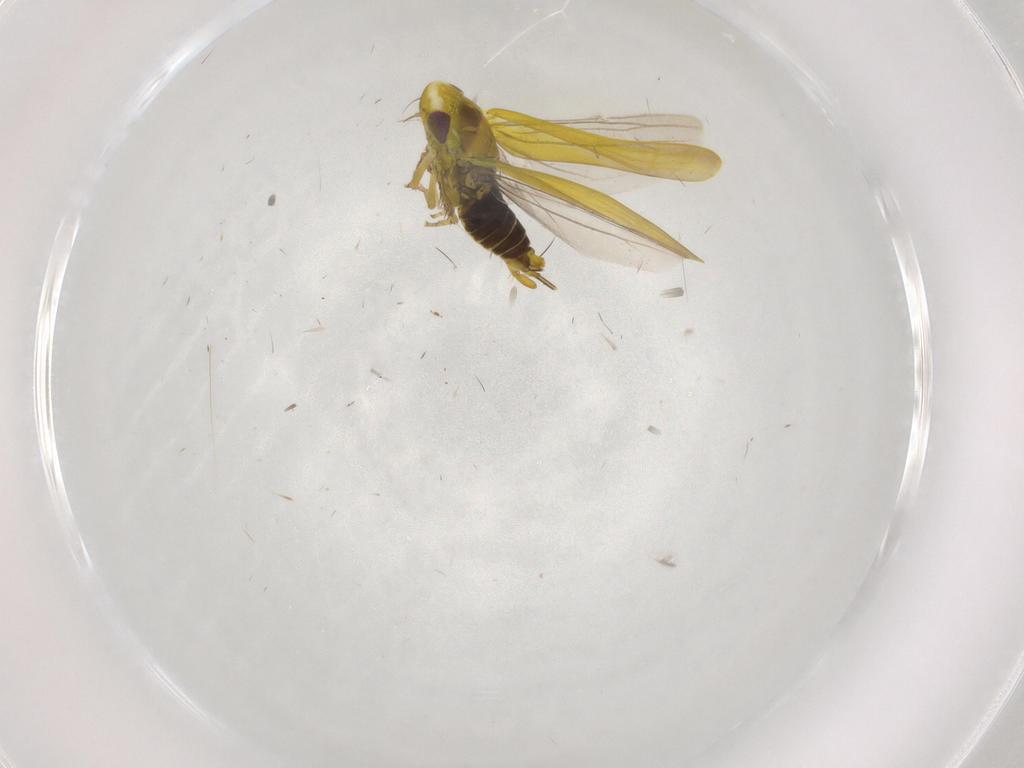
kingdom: Animalia
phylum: Arthropoda
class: Insecta
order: Hemiptera
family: Cicadellidae
